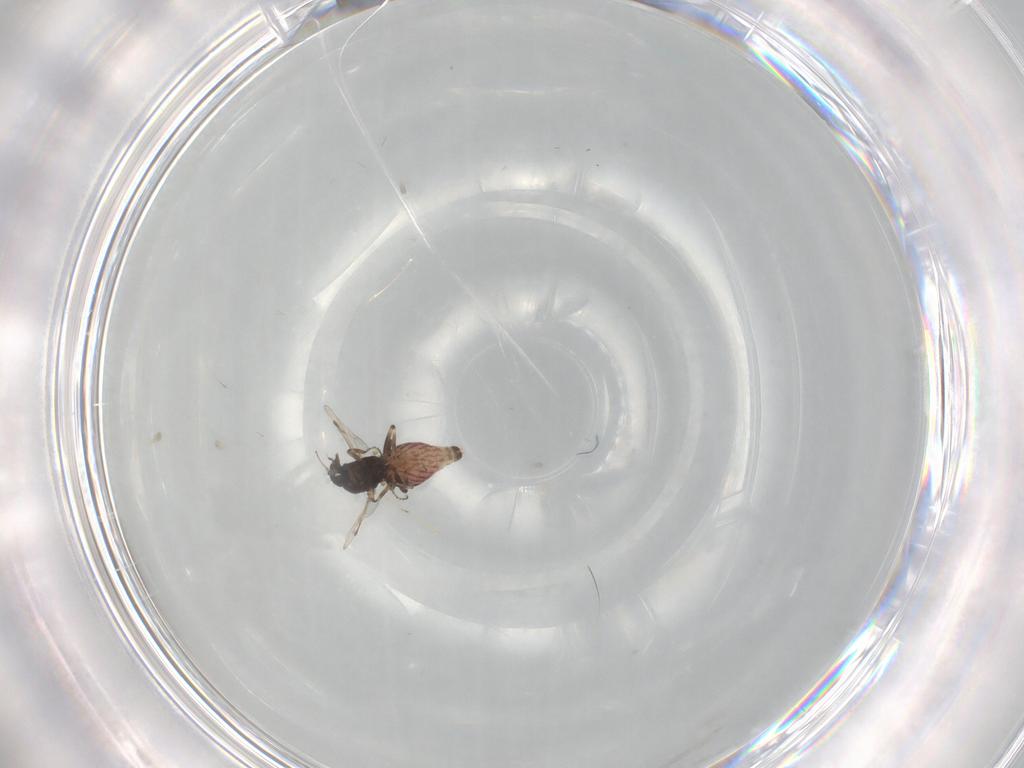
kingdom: Animalia
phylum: Arthropoda
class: Insecta
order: Diptera
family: Ceratopogonidae
